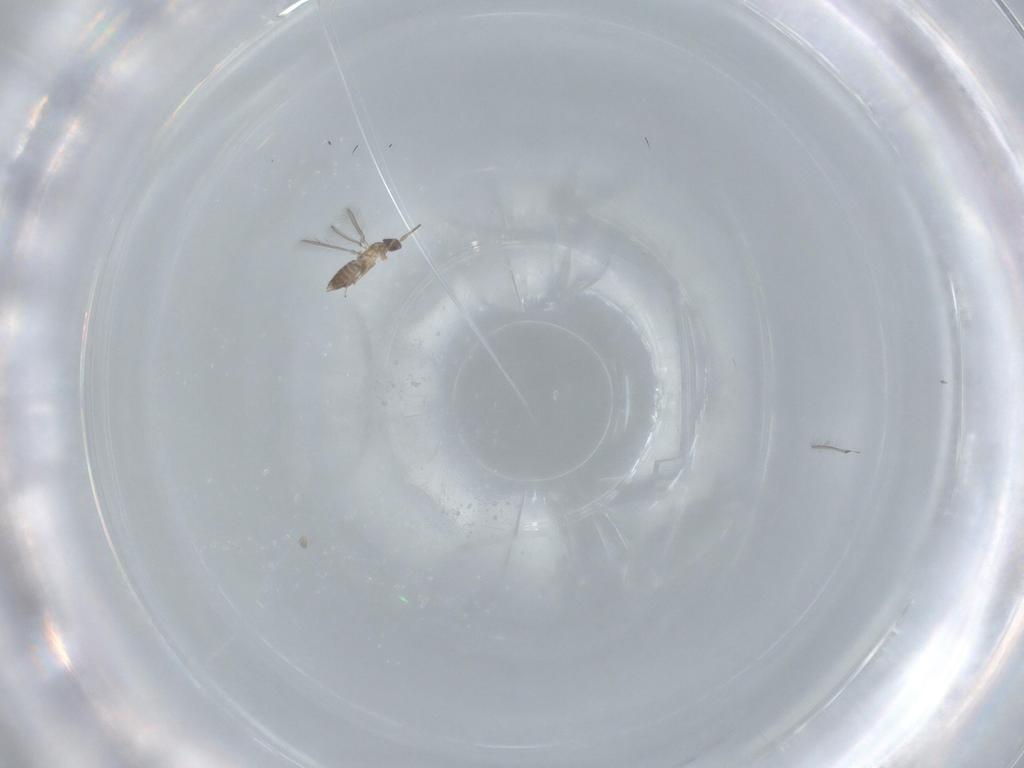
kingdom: Animalia
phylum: Arthropoda
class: Insecta
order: Hymenoptera
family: Mymaridae
